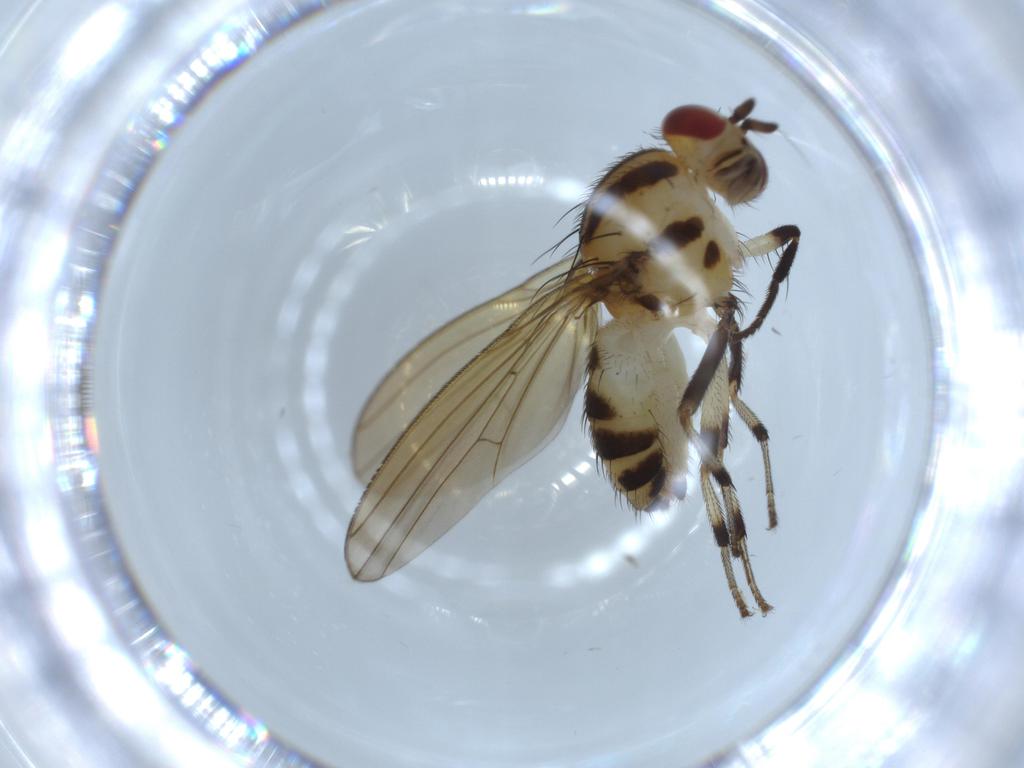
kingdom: Animalia
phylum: Arthropoda
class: Insecta
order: Diptera
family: Lauxaniidae
